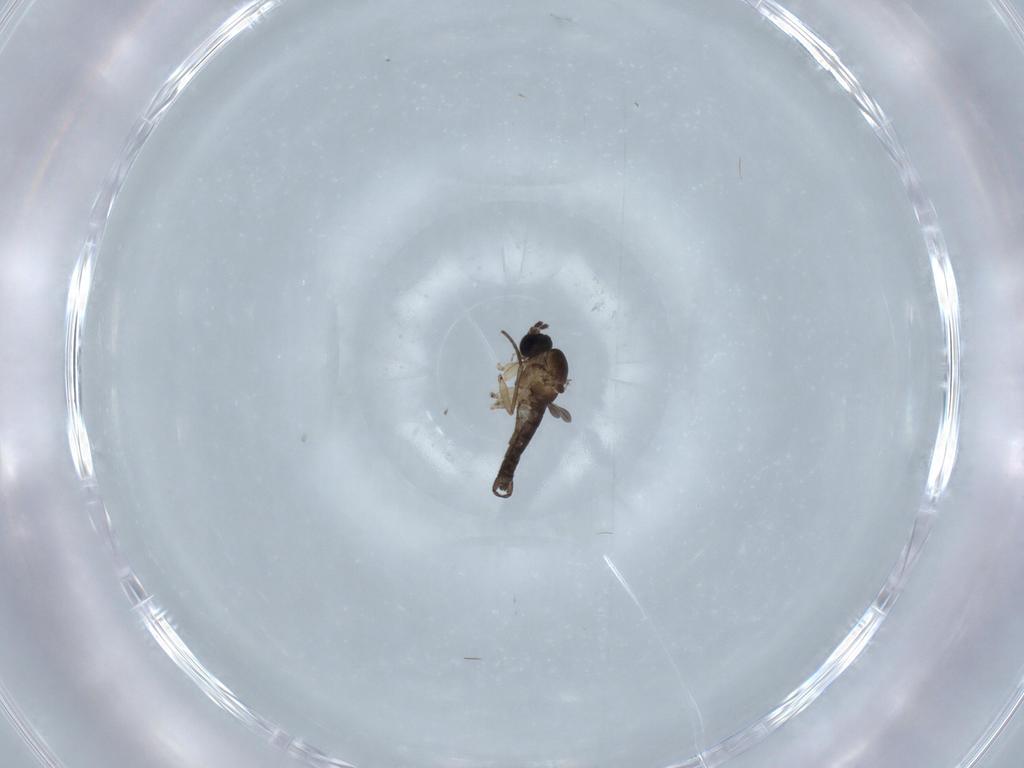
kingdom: Animalia
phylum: Arthropoda
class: Insecta
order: Diptera
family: Sciaridae
